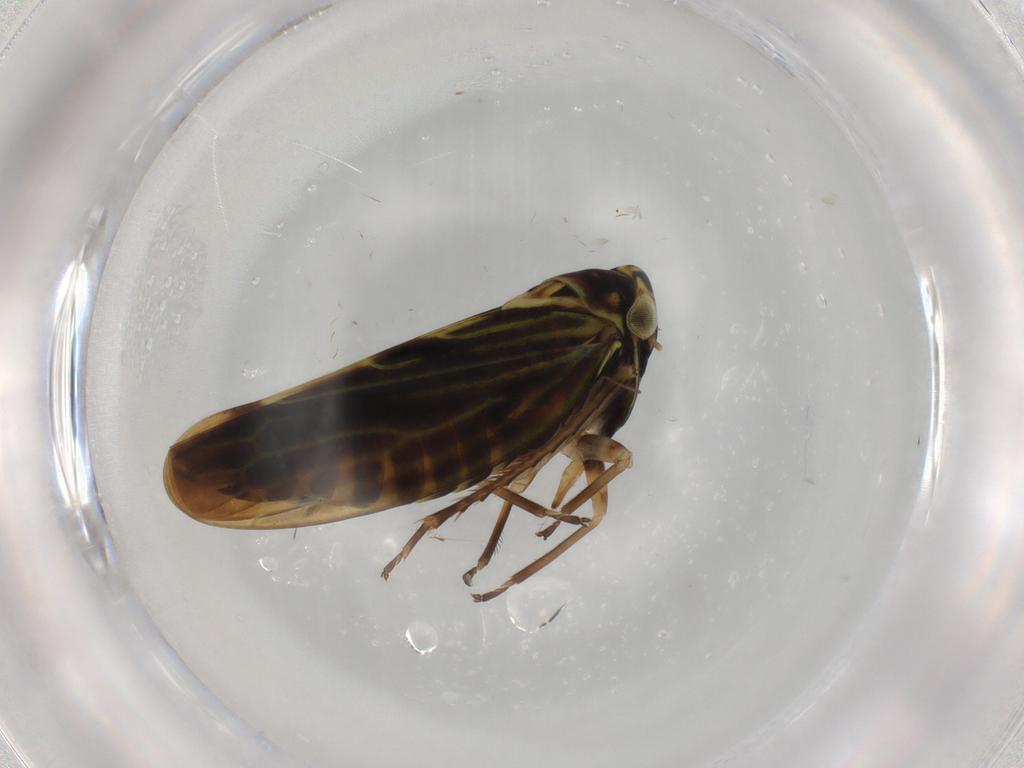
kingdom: Animalia
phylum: Arthropoda
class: Insecta
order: Hemiptera
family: Cicadellidae
